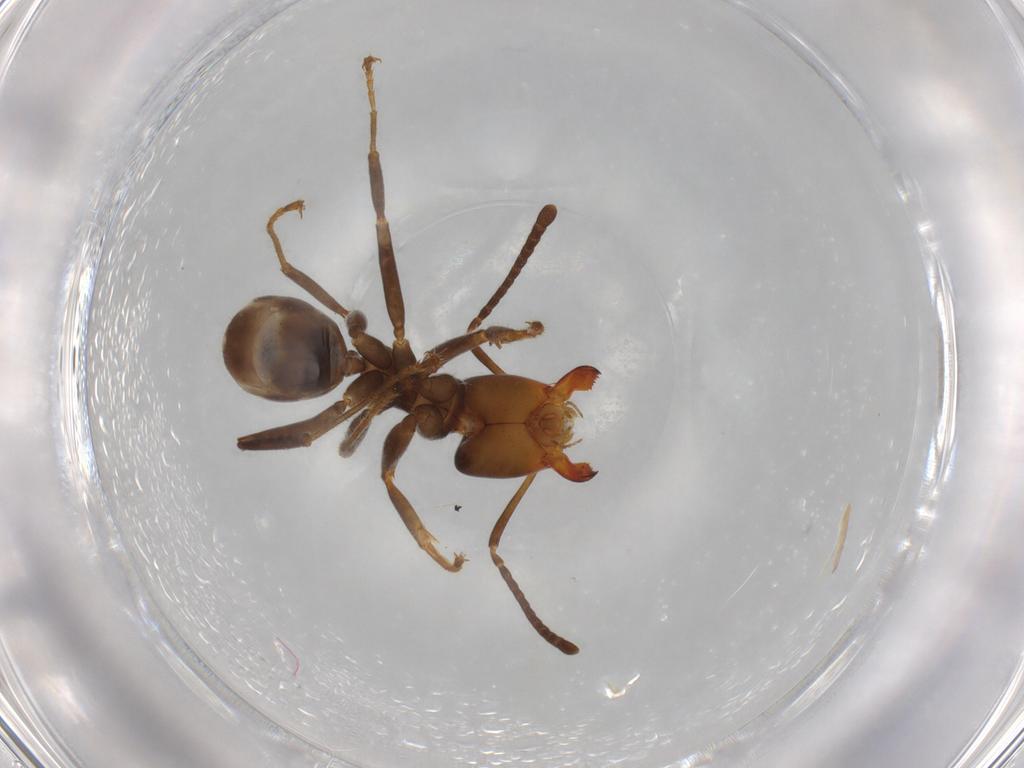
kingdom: Animalia
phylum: Arthropoda
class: Insecta
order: Hymenoptera
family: Formicidae
